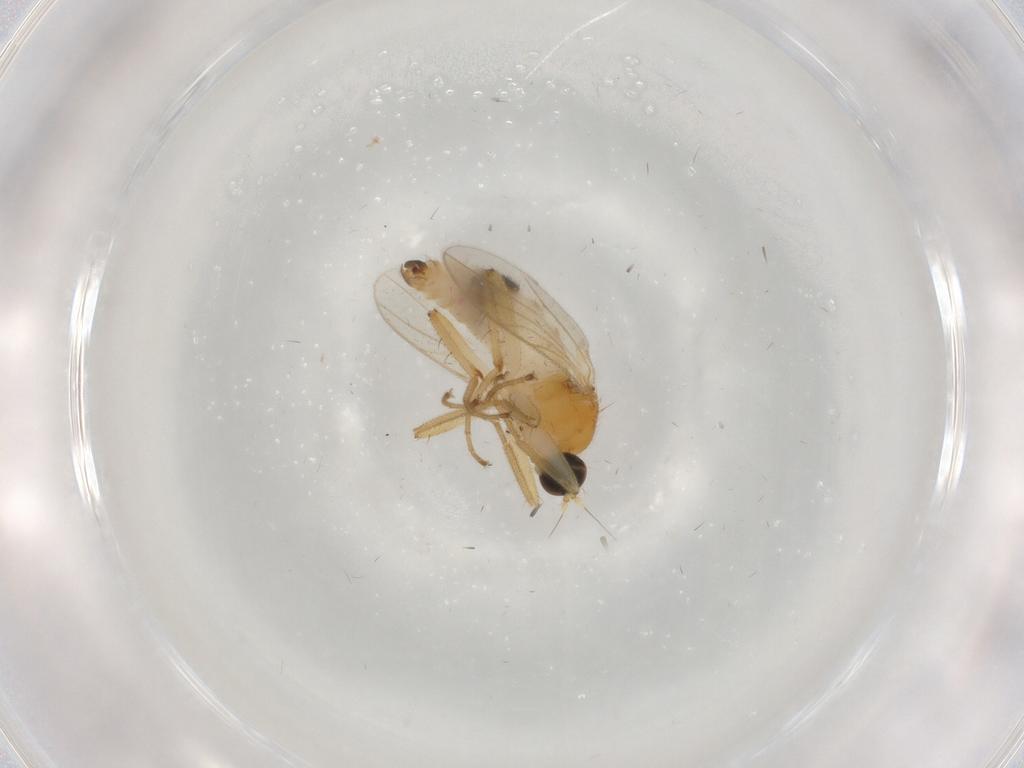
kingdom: Animalia
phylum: Arthropoda
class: Insecta
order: Diptera
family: Hybotidae
